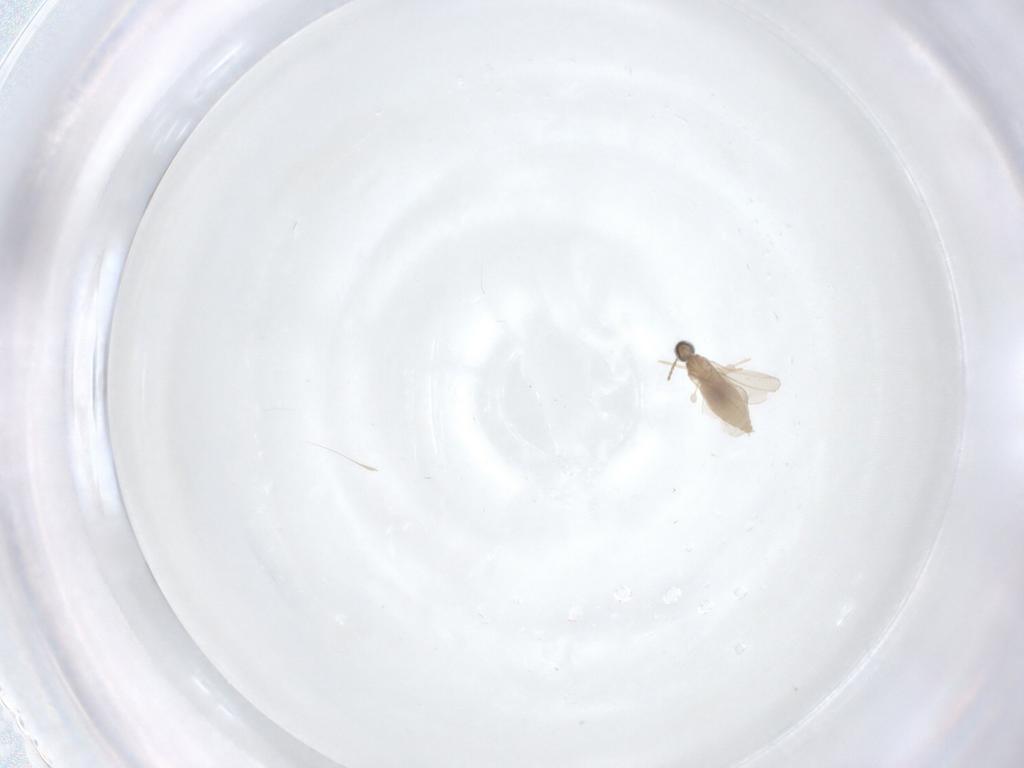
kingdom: Animalia
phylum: Arthropoda
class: Insecta
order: Diptera
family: Cecidomyiidae
